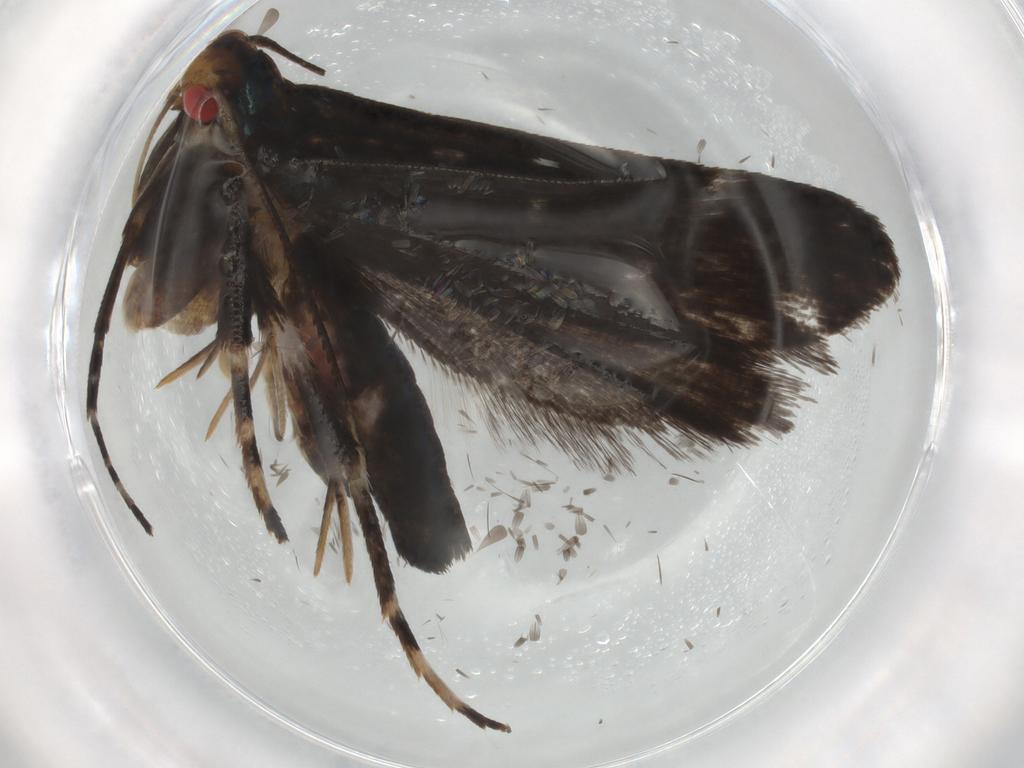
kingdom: Animalia
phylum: Arthropoda
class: Insecta
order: Lepidoptera
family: Gelechiidae
